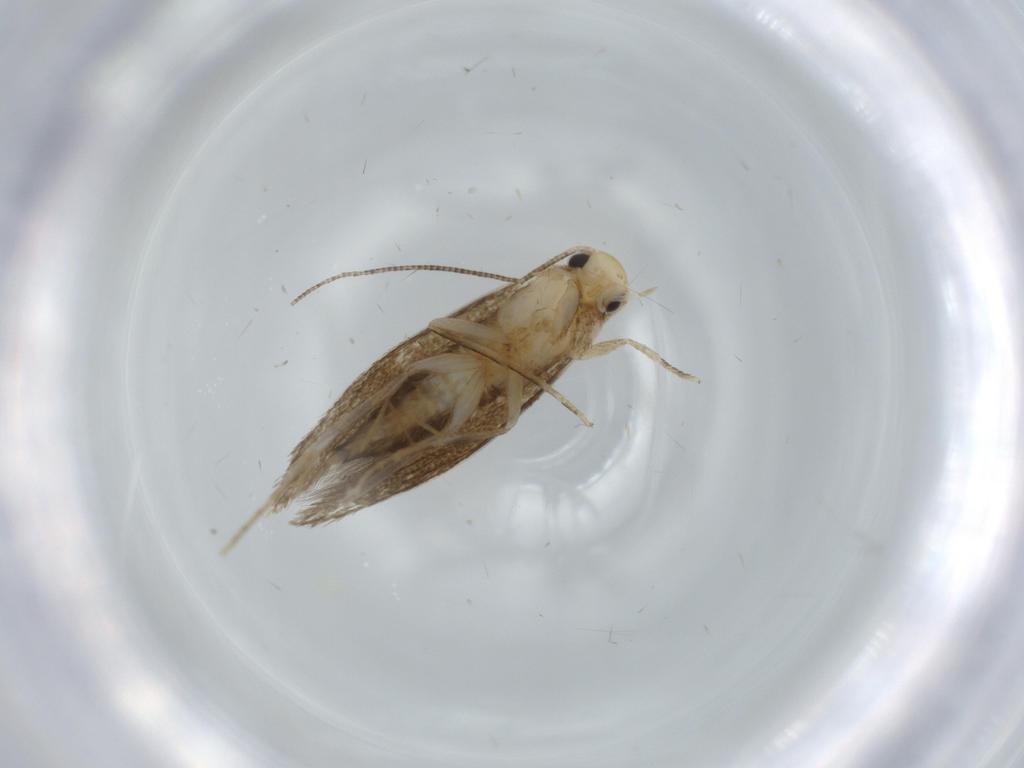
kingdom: Animalia
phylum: Arthropoda
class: Insecta
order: Lepidoptera
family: Tineidae
